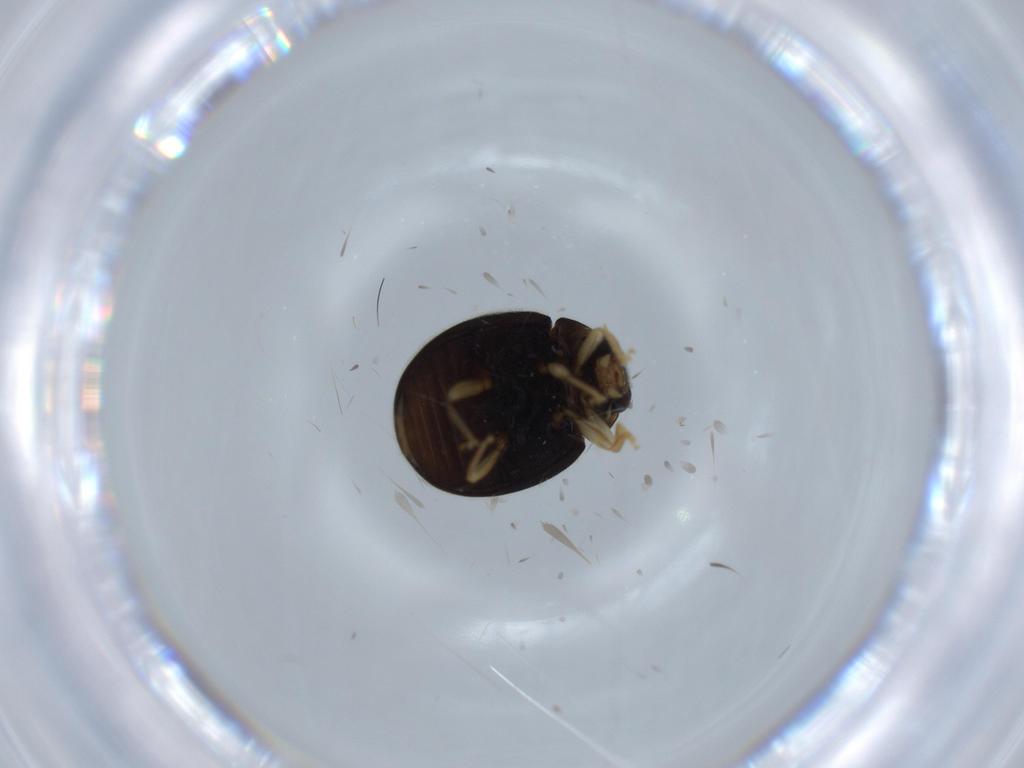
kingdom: Animalia
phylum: Arthropoda
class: Insecta
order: Coleoptera
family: Coccinellidae
